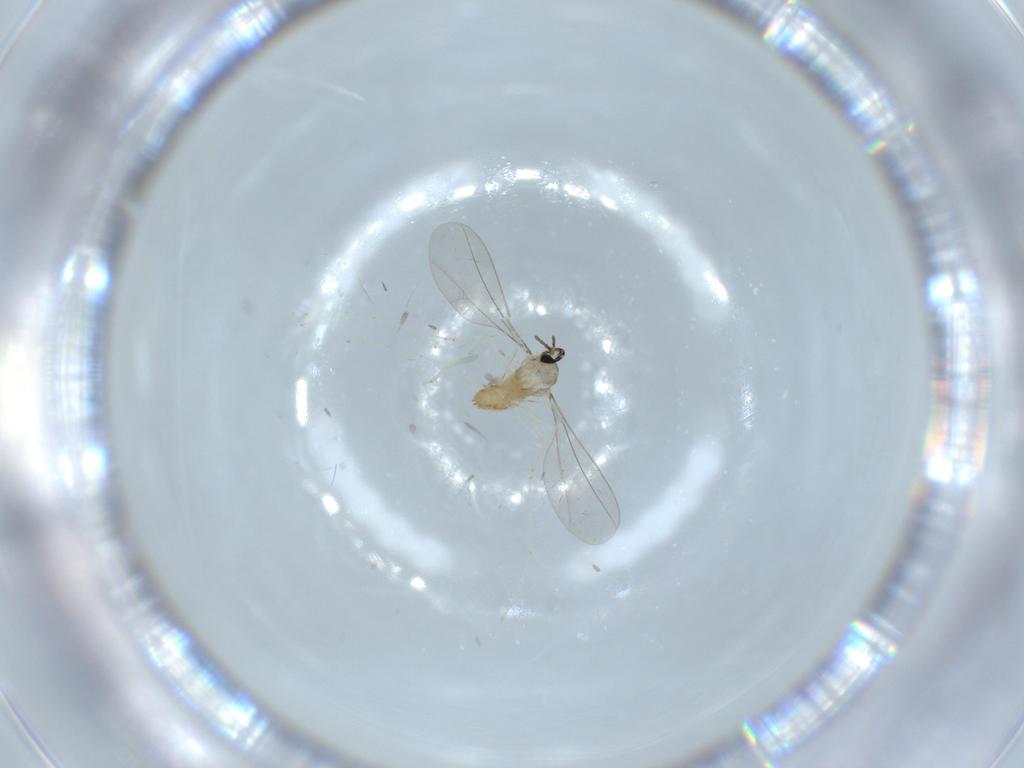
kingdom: Animalia
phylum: Arthropoda
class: Insecta
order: Diptera
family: Cecidomyiidae
